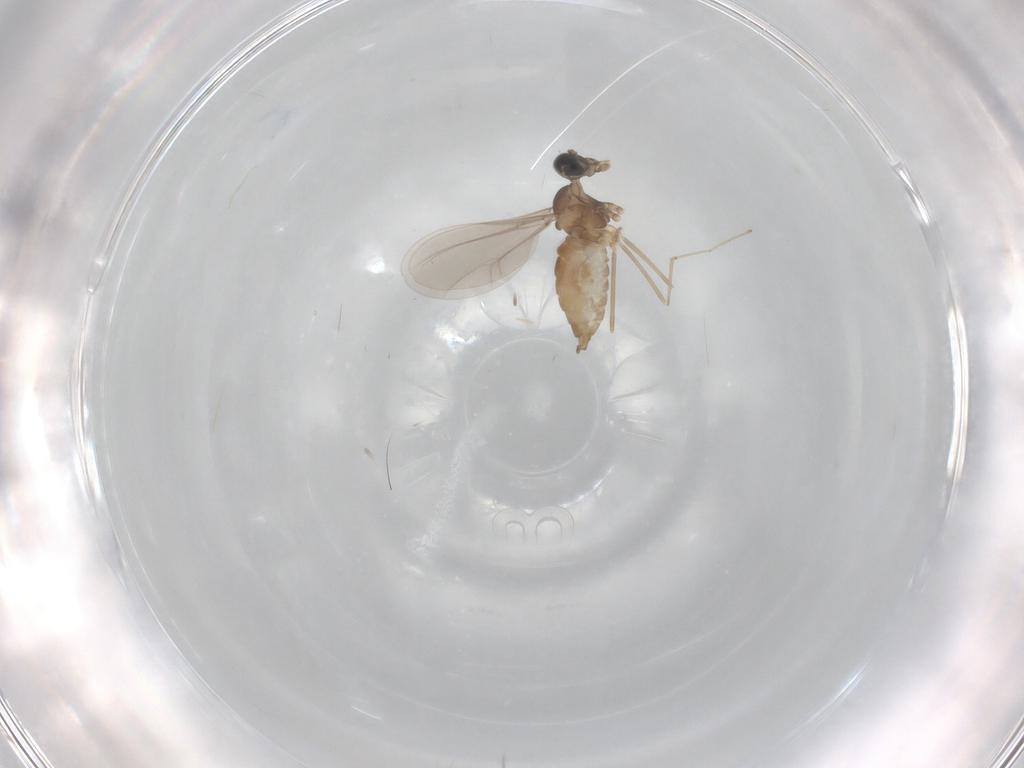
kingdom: Animalia
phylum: Arthropoda
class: Insecta
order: Diptera
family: Cecidomyiidae
